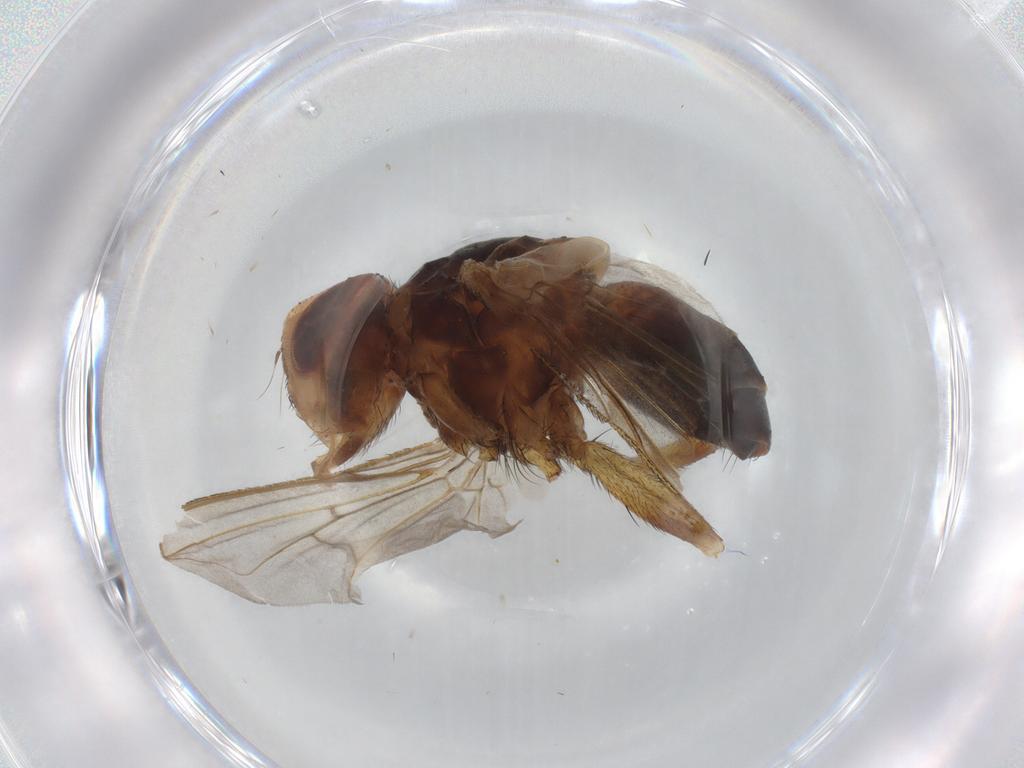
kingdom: Animalia
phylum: Arthropoda
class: Insecta
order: Diptera
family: Tachinidae
